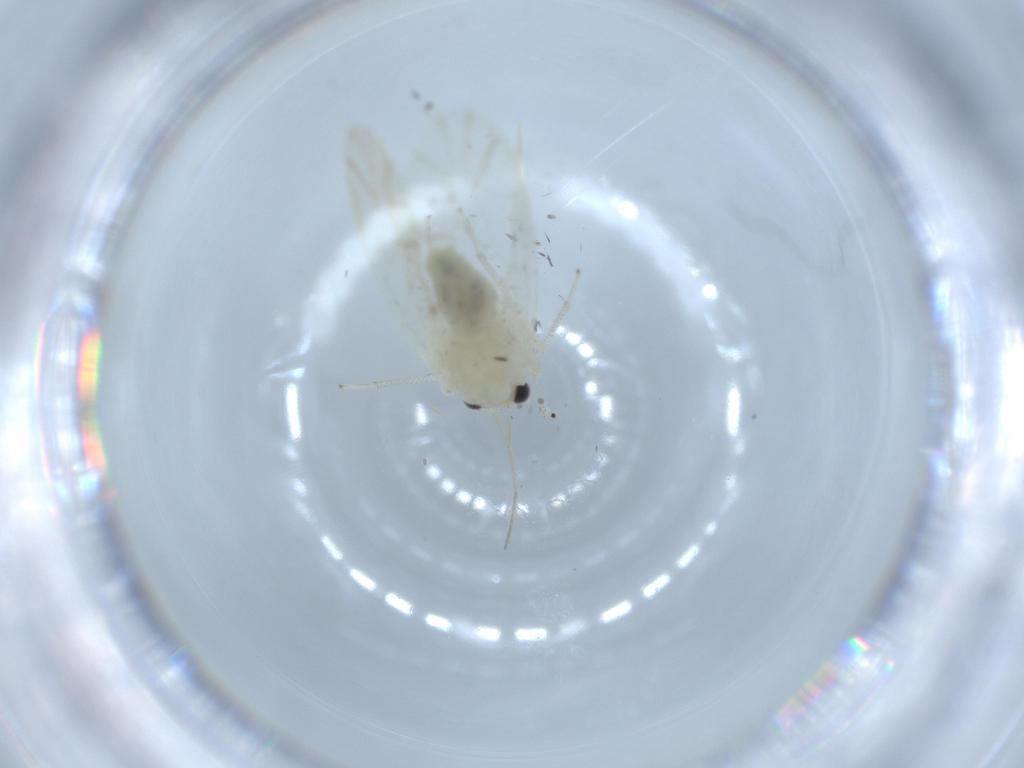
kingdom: Animalia
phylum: Arthropoda
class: Insecta
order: Psocodea
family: Caeciliusidae
